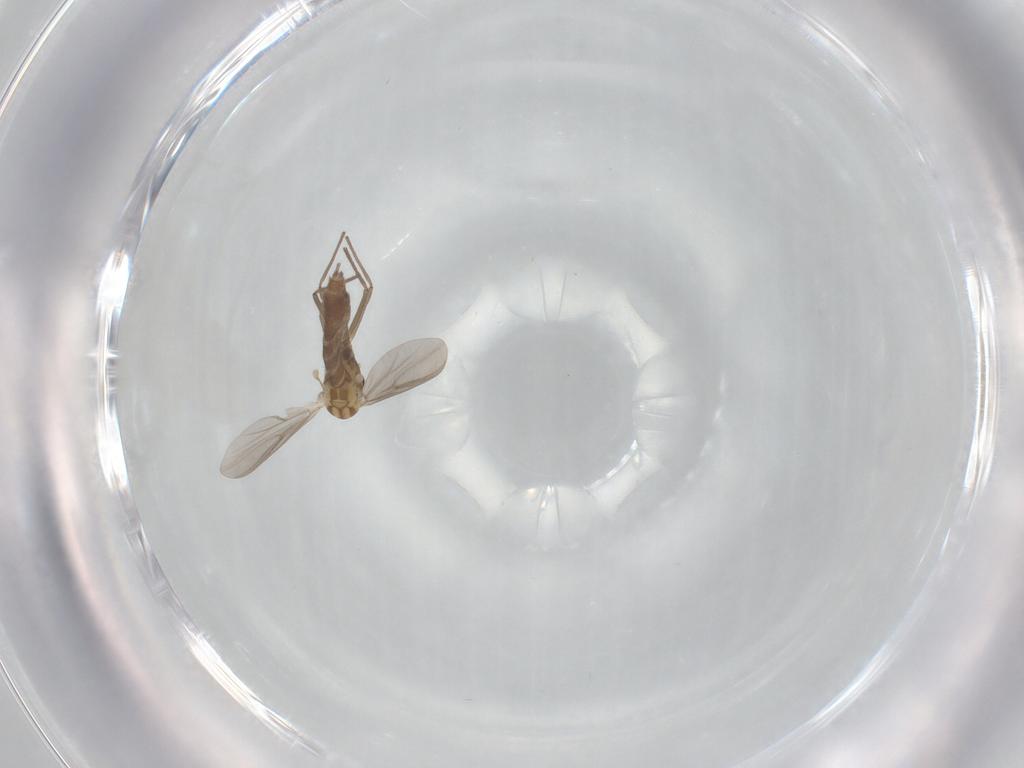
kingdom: Animalia
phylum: Arthropoda
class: Insecta
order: Diptera
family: Chironomidae
